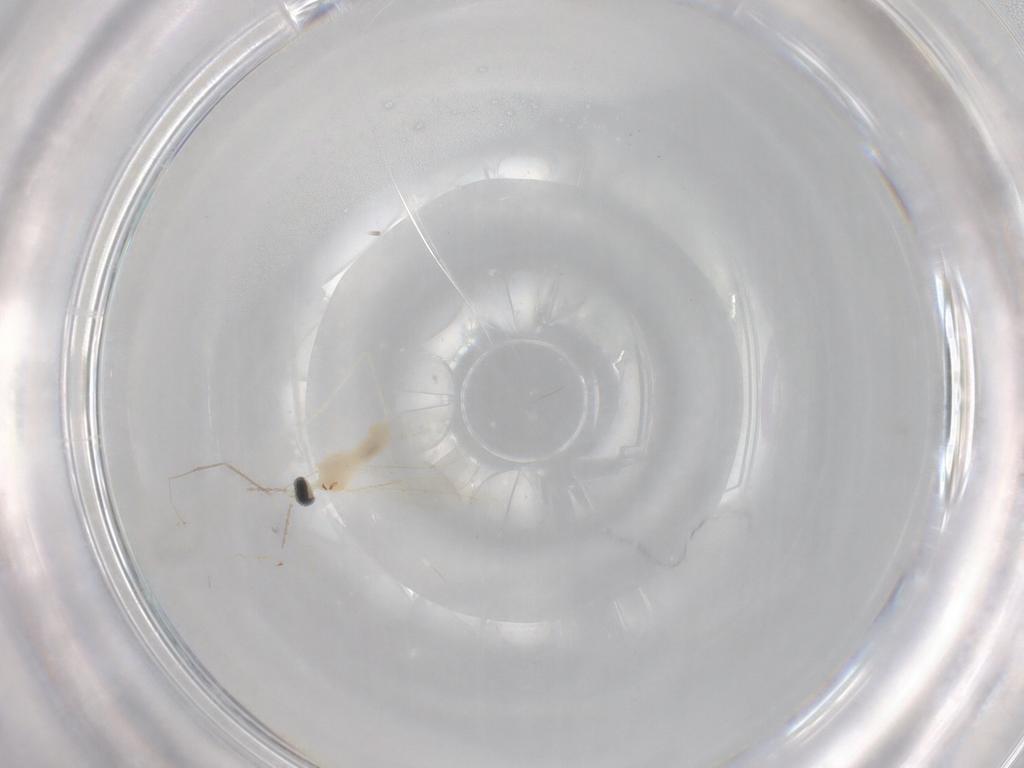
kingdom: Animalia
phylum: Arthropoda
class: Insecta
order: Diptera
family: Cecidomyiidae
